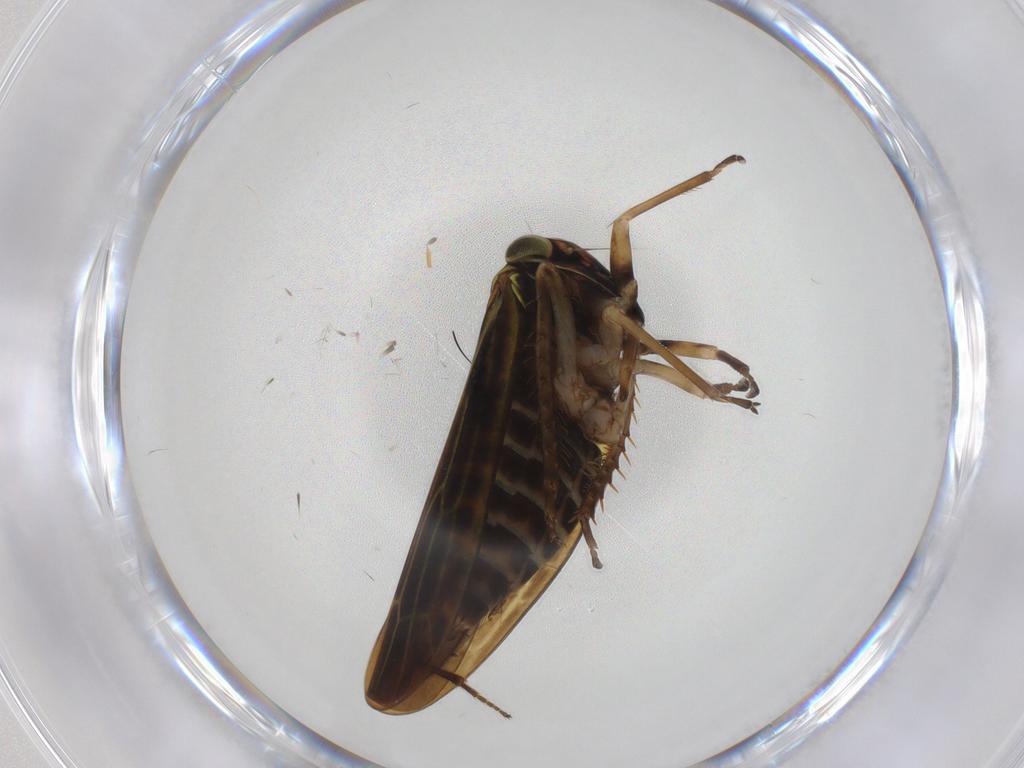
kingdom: Animalia
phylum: Arthropoda
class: Insecta
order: Hemiptera
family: Cicadellidae
